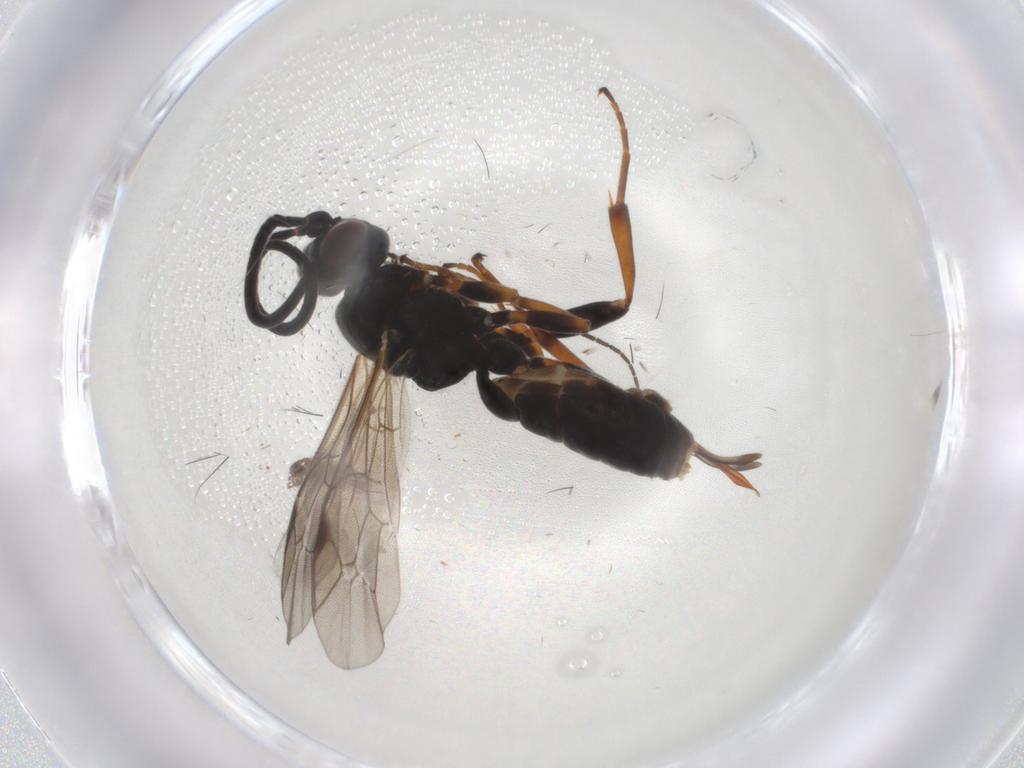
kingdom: Animalia
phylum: Arthropoda
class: Insecta
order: Hymenoptera
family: Ichneumonidae
